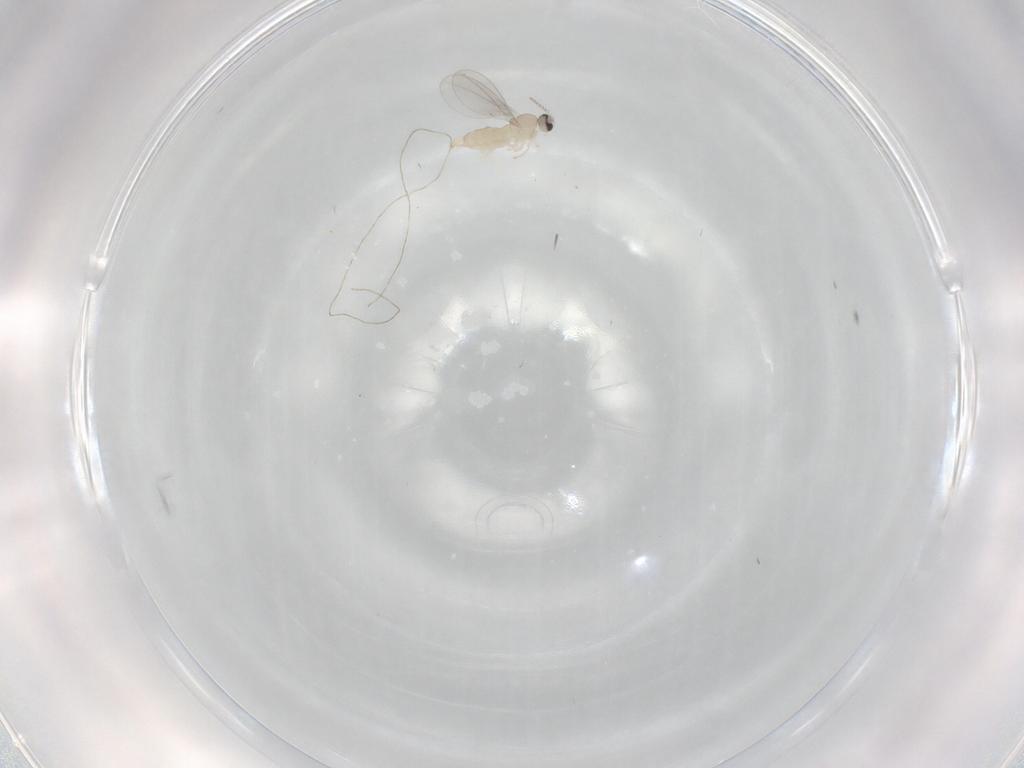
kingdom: Animalia
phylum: Arthropoda
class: Insecta
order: Diptera
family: Cecidomyiidae
